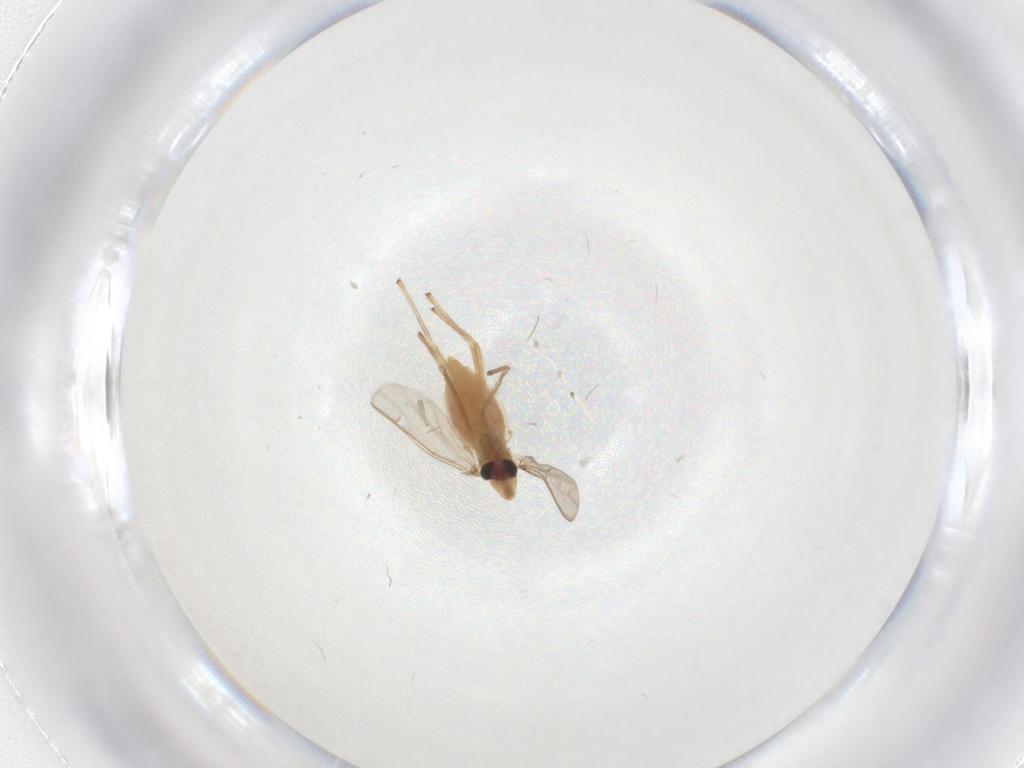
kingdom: Animalia
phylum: Arthropoda
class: Insecta
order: Diptera
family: Chironomidae
